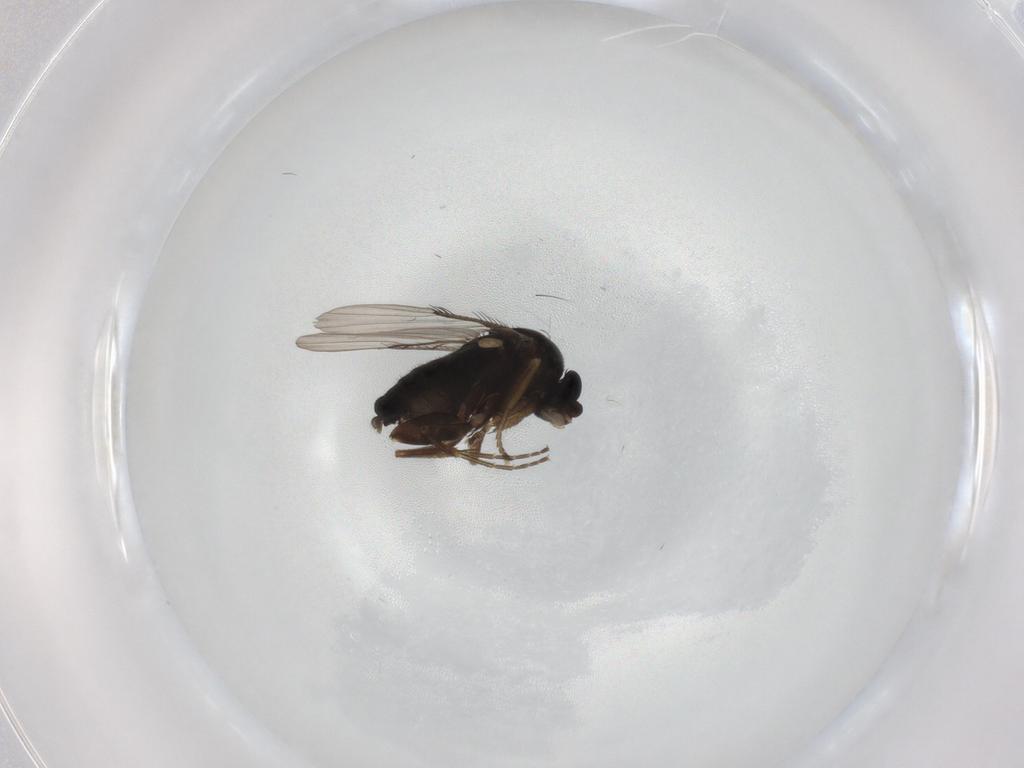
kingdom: Animalia
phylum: Arthropoda
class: Insecta
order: Diptera
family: Phoridae
